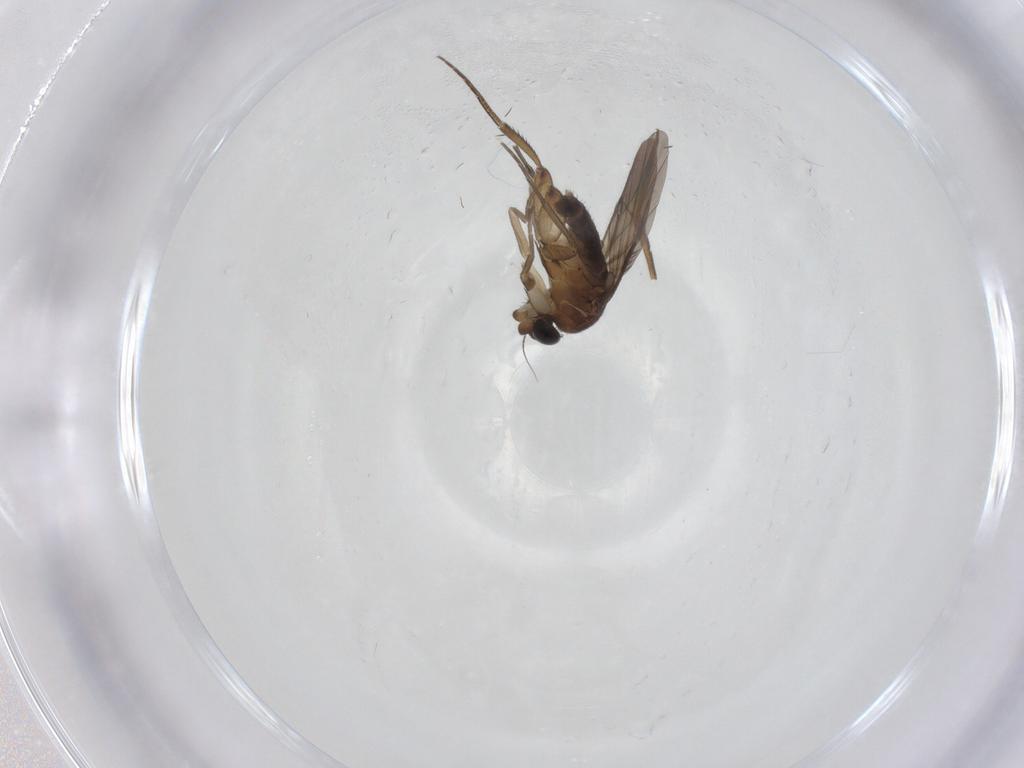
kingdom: Animalia
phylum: Arthropoda
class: Insecta
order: Diptera
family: Phoridae
